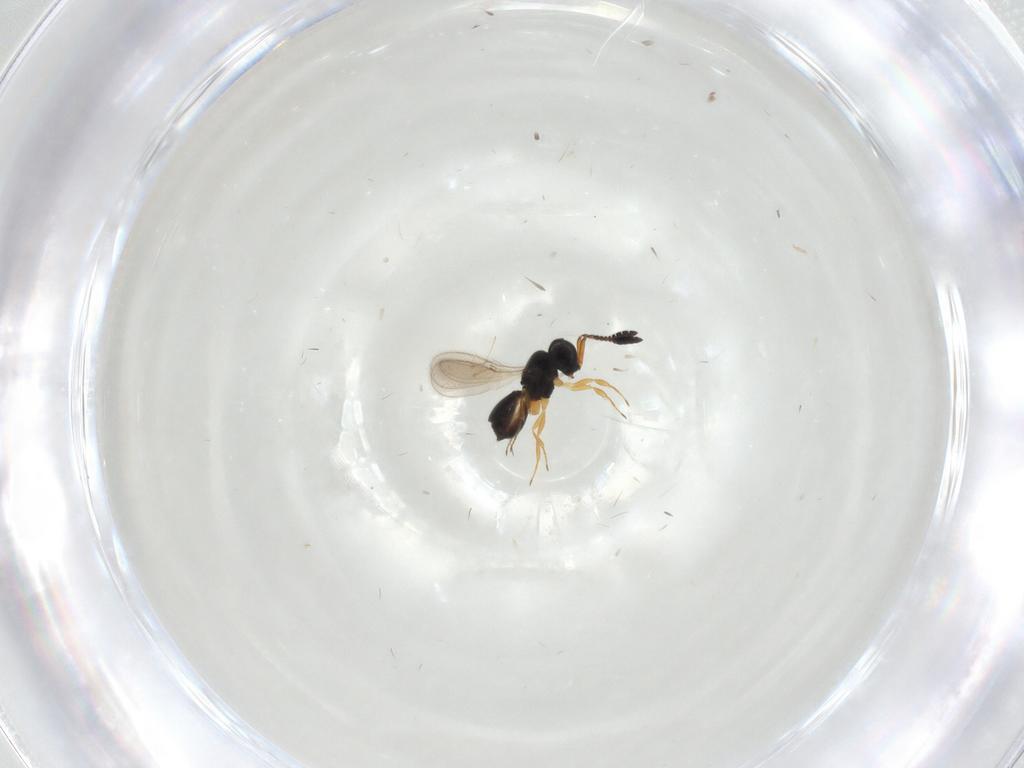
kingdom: Animalia
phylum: Arthropoda
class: Insecta
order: Hymenoptera
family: Scelionidae
